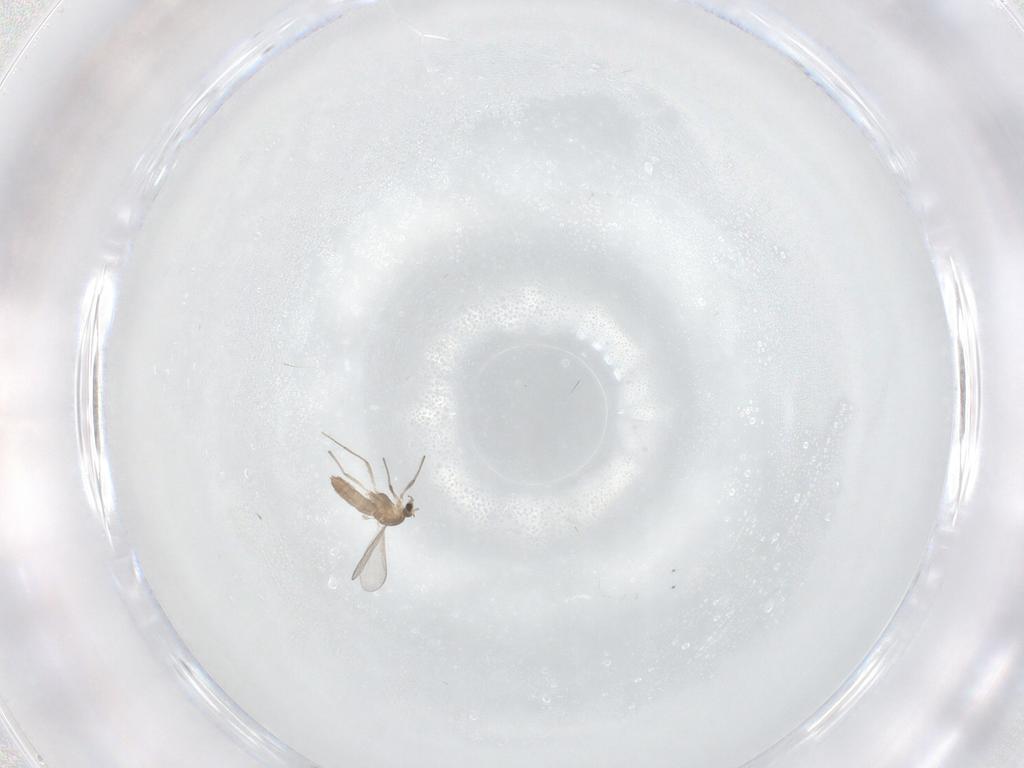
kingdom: Animalia
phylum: Arthropoda
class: Insecta
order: Diptera
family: Chironomidae
